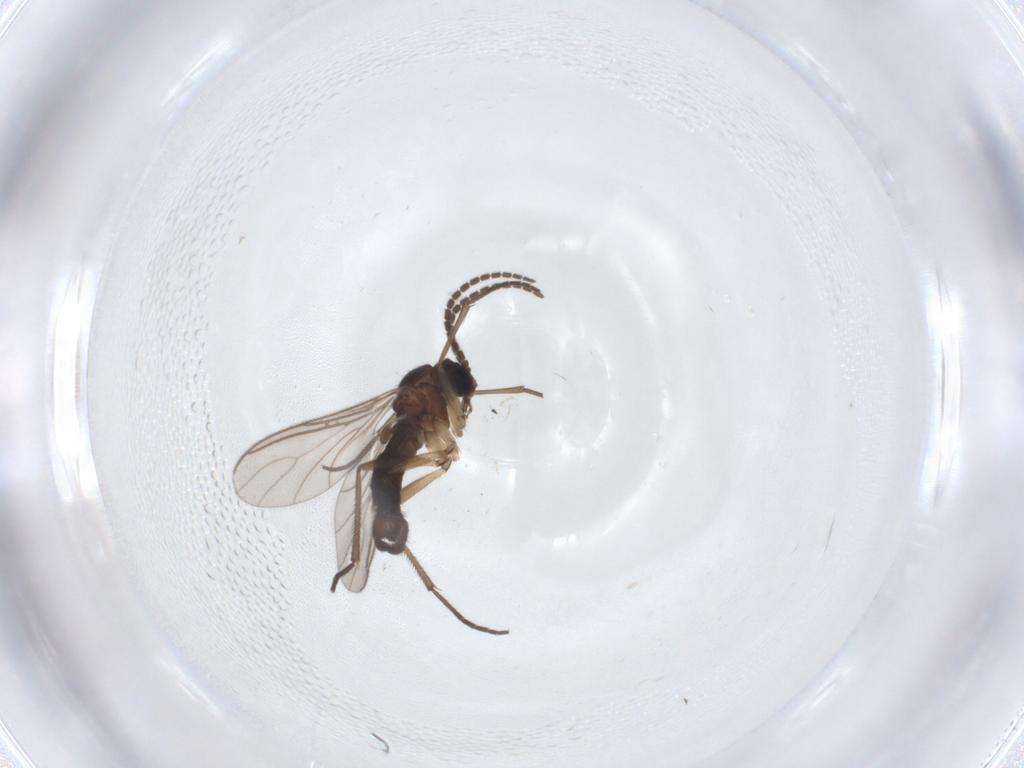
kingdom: Animalia
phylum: Arthropoda
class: Insecta
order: Diptera
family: Sciaridae
